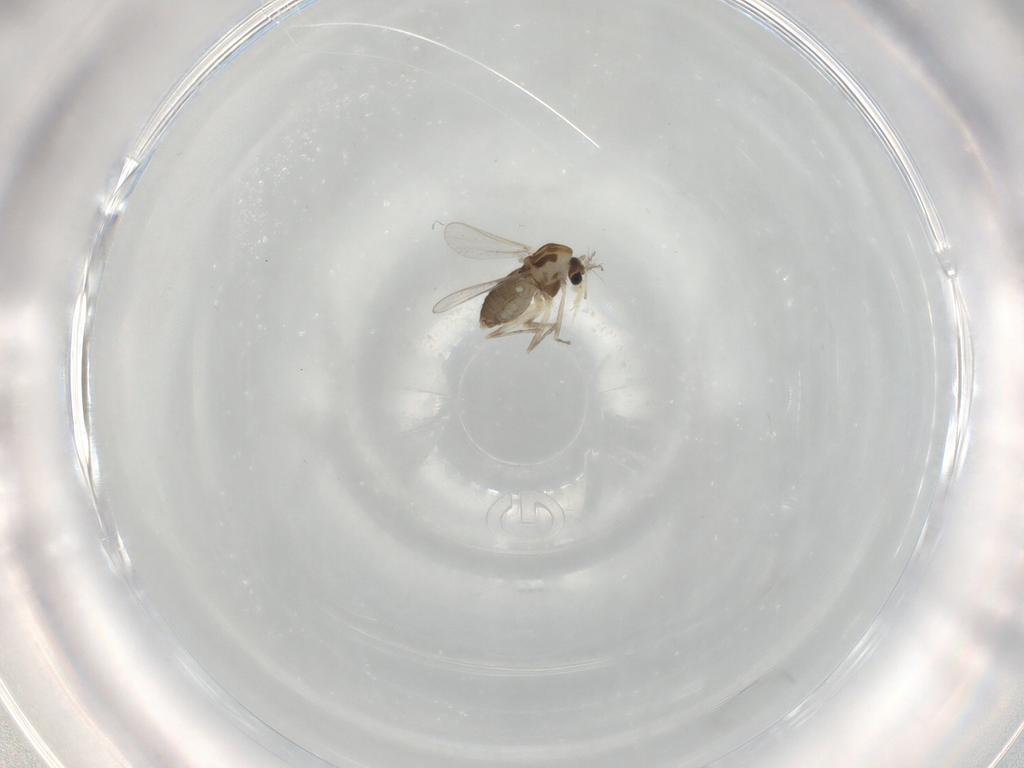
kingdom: Animalia
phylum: Arthropoda
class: Insecta
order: Diptera
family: Chironomidae
